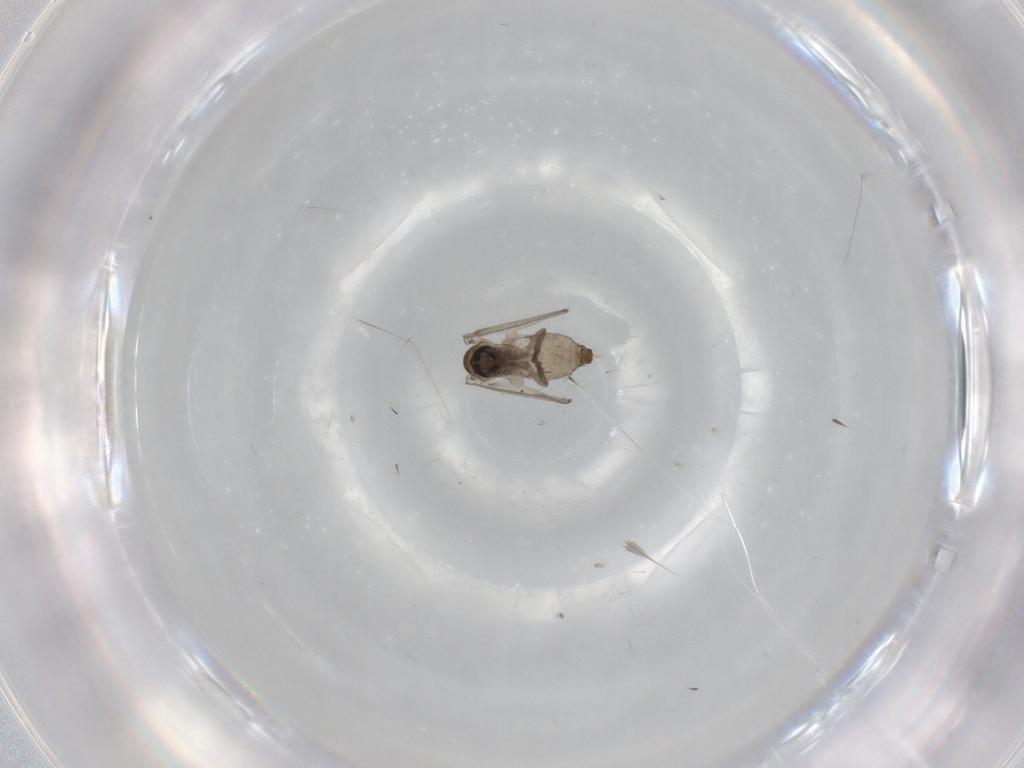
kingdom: Animalia
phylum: Arthropoda
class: Insecta
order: Diptera
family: Psychodidae
